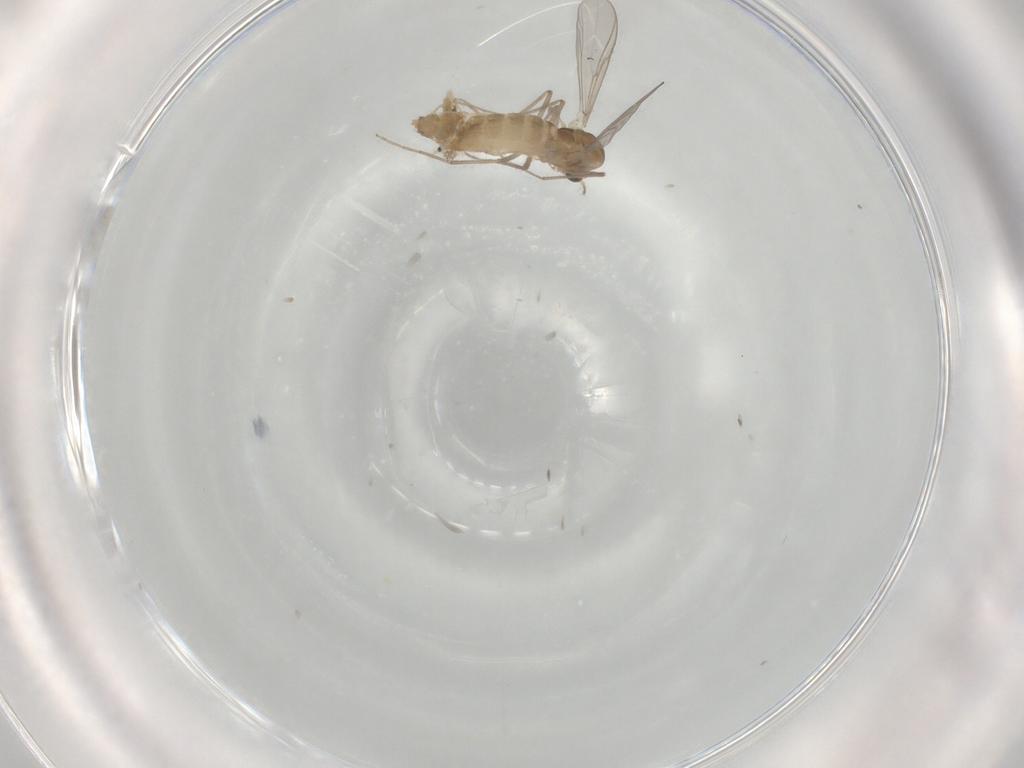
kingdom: Animalia
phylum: Arthropoda
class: Insecta
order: Diptera
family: Chironomidae
